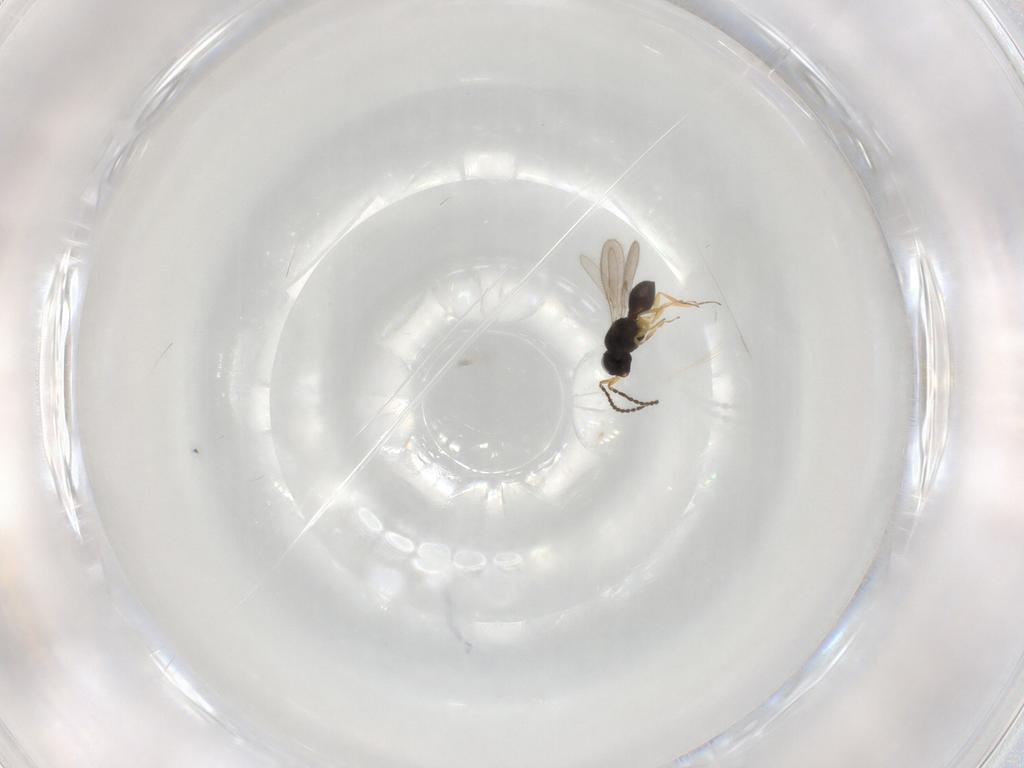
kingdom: Animalia
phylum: Arthropoda
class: Insecta
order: Hymenoptera
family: Scelionidae
